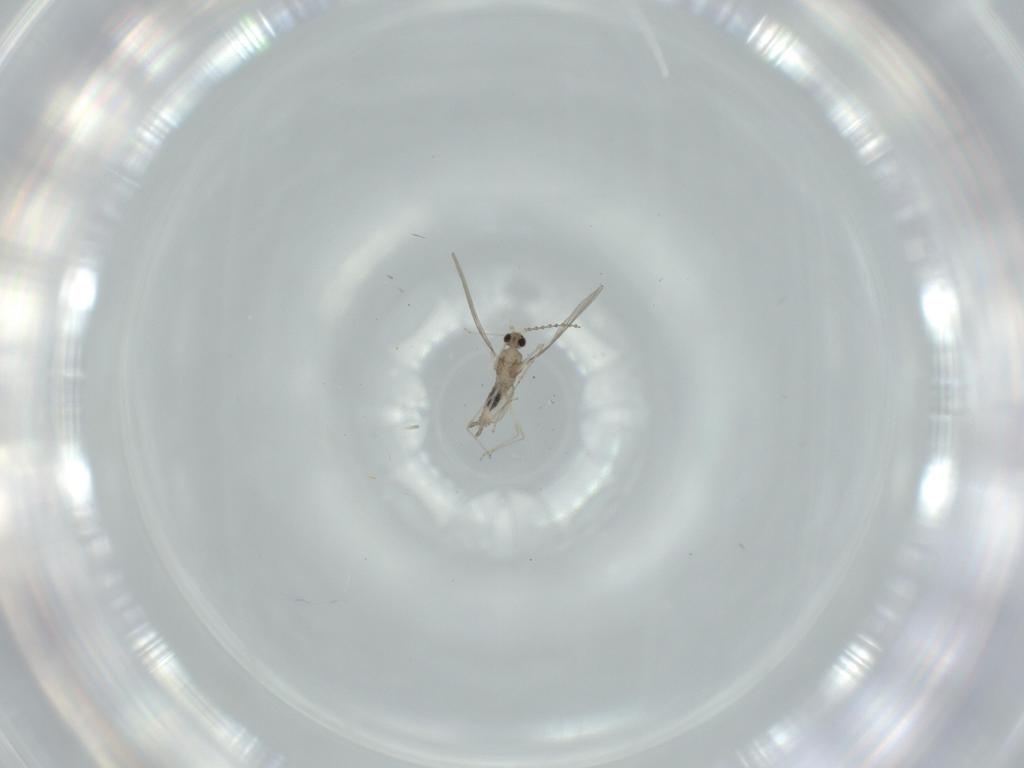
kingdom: Animalia
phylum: Arthropoda
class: Insecta
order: Diptera
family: Cecidomyiidae
